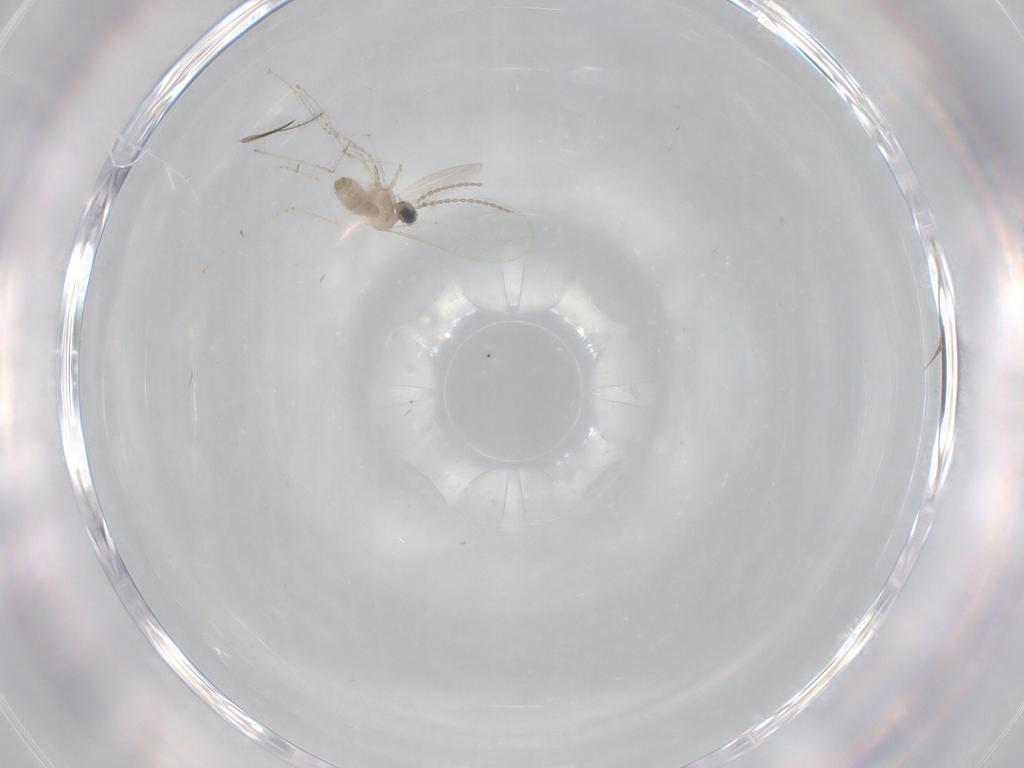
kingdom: Animalia
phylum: Arthropoda
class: Insecta
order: Diptera
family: Cecidomyiidae
